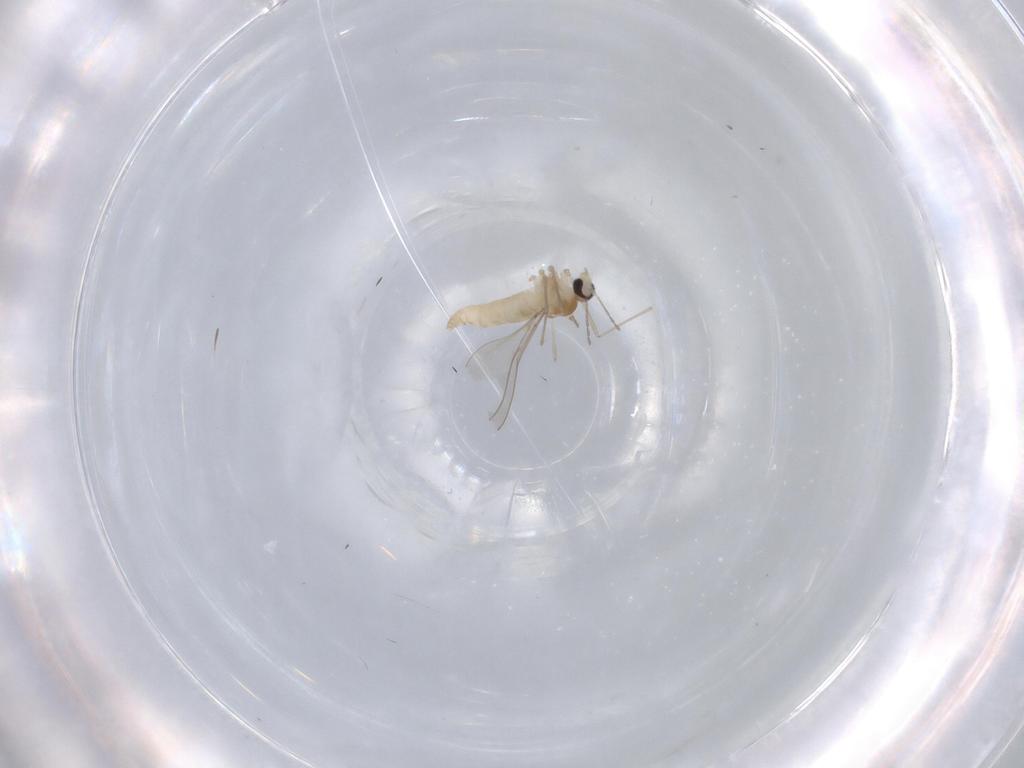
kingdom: Animalia
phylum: Arthropoda
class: Insecta
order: Diptera
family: Cecidomyiidae
